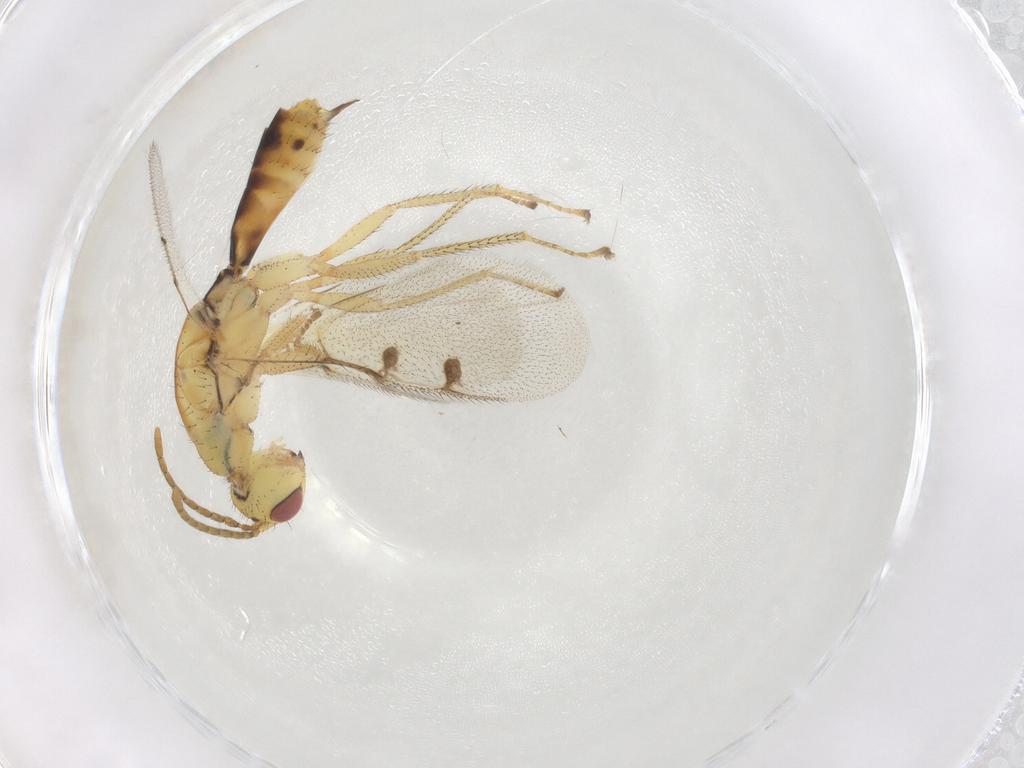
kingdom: Animalia
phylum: Arthropoda
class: Insecta
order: Hymenoptera
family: Megastigmidae
